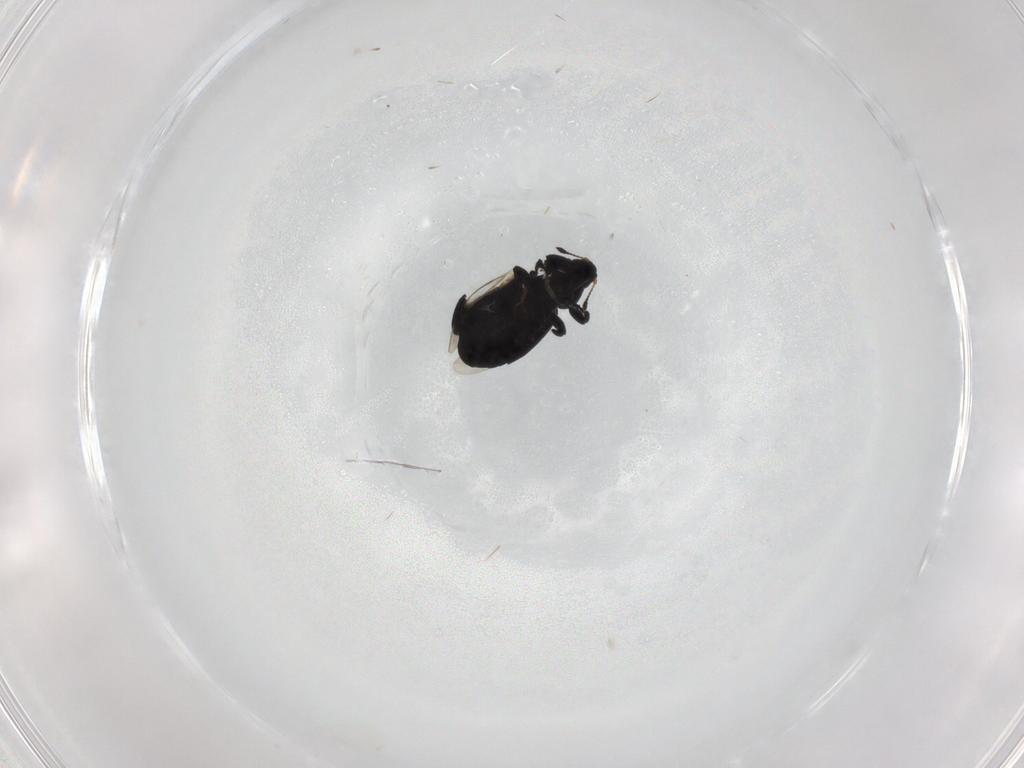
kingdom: Animalia
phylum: Arthropoda
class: Insecta
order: Coleoptera
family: Curculionidae
